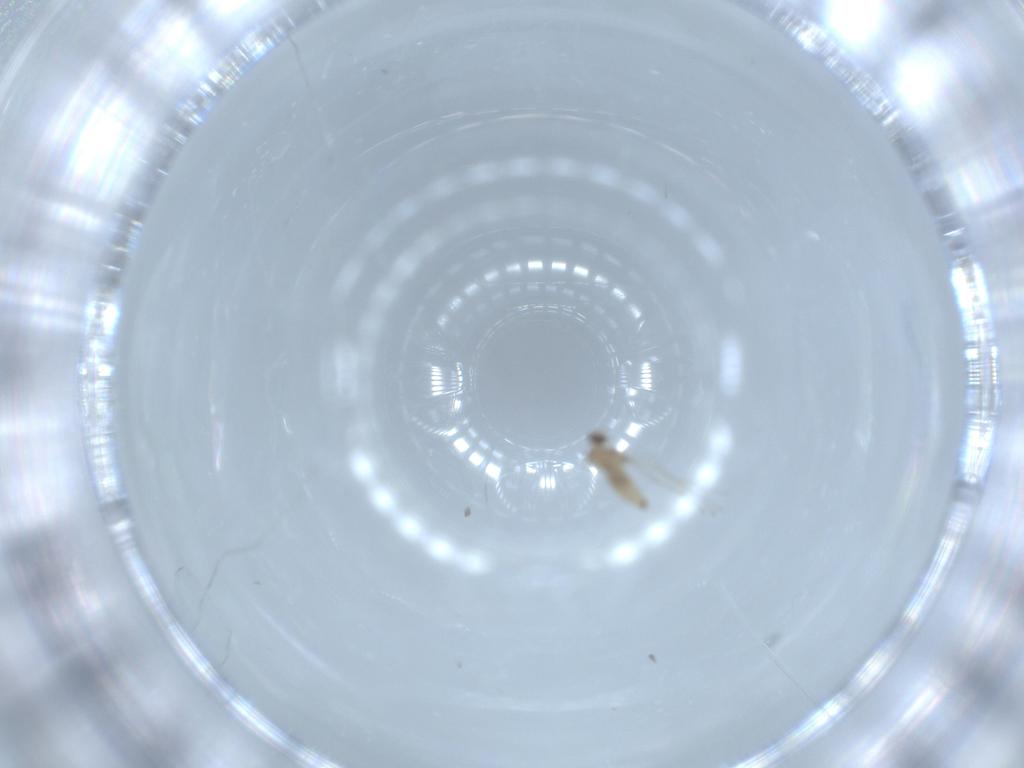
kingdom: Animalia
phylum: Arthropoda
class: Insecta
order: Diptera
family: Cecidomyiidae
